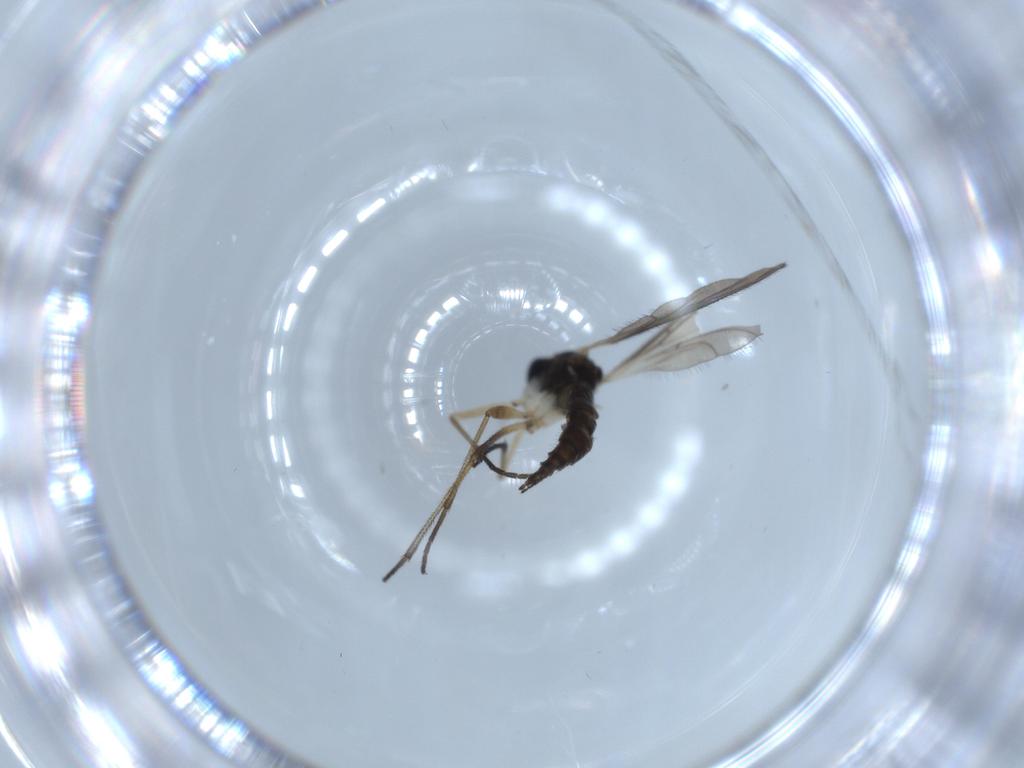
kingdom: Animalia
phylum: Arthropoda
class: Insecta
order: Diptera
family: Sciaridae
